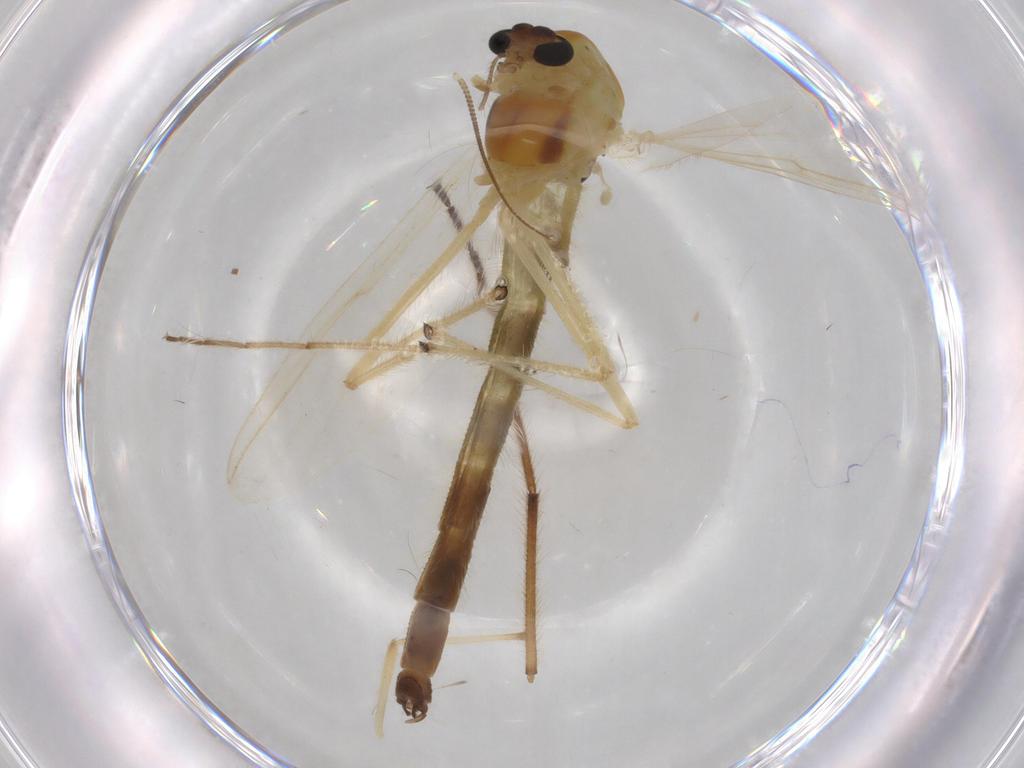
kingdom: Animalia
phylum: Arthropoda
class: Insecta
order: Diptera
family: Chironomidae
